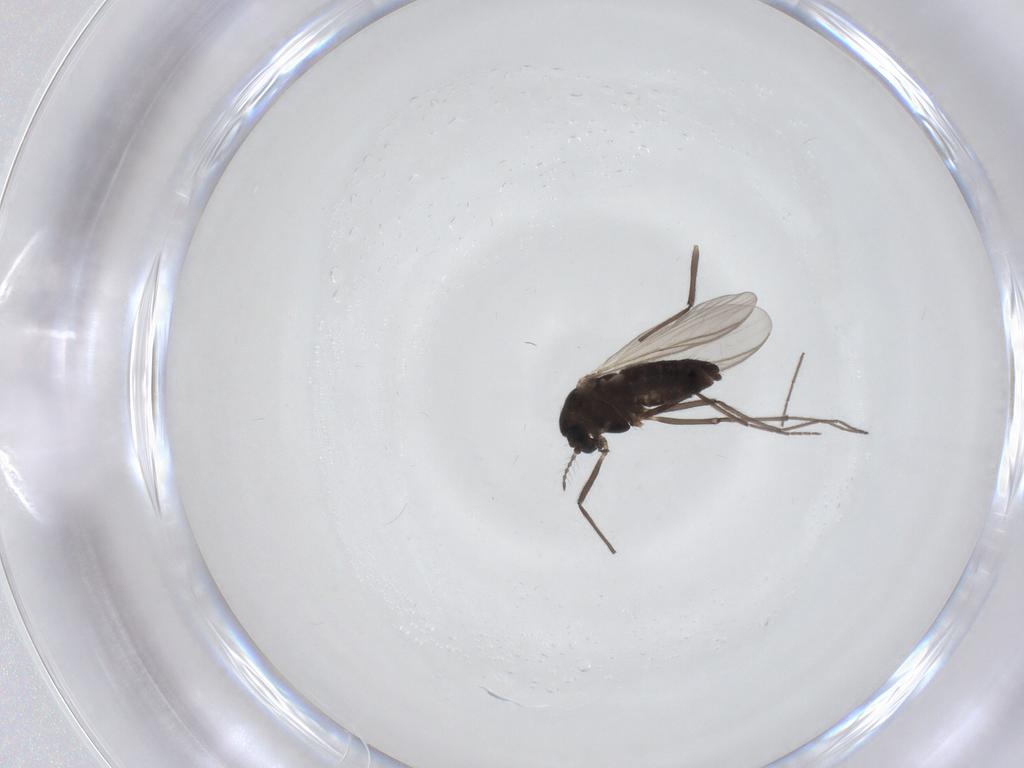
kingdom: Animalia
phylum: Arthropoda
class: Insecta
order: Diptera
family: Chironomidae
